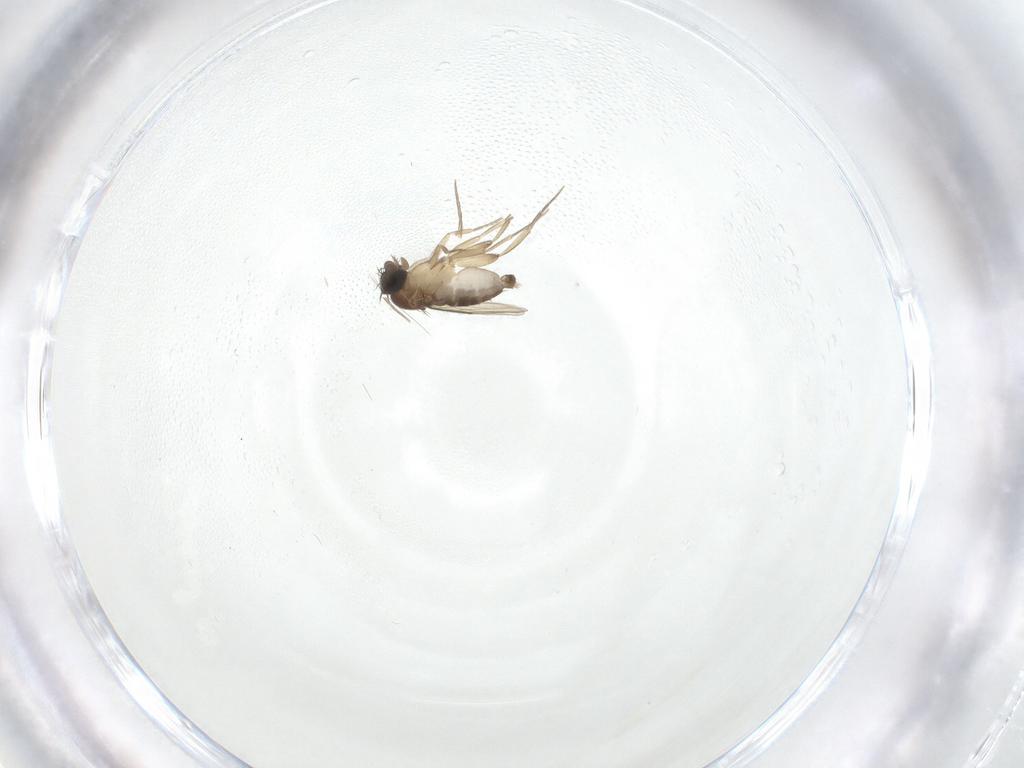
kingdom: Animalia
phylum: Arthropoda
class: Insecta
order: Diptera
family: Phoridae
